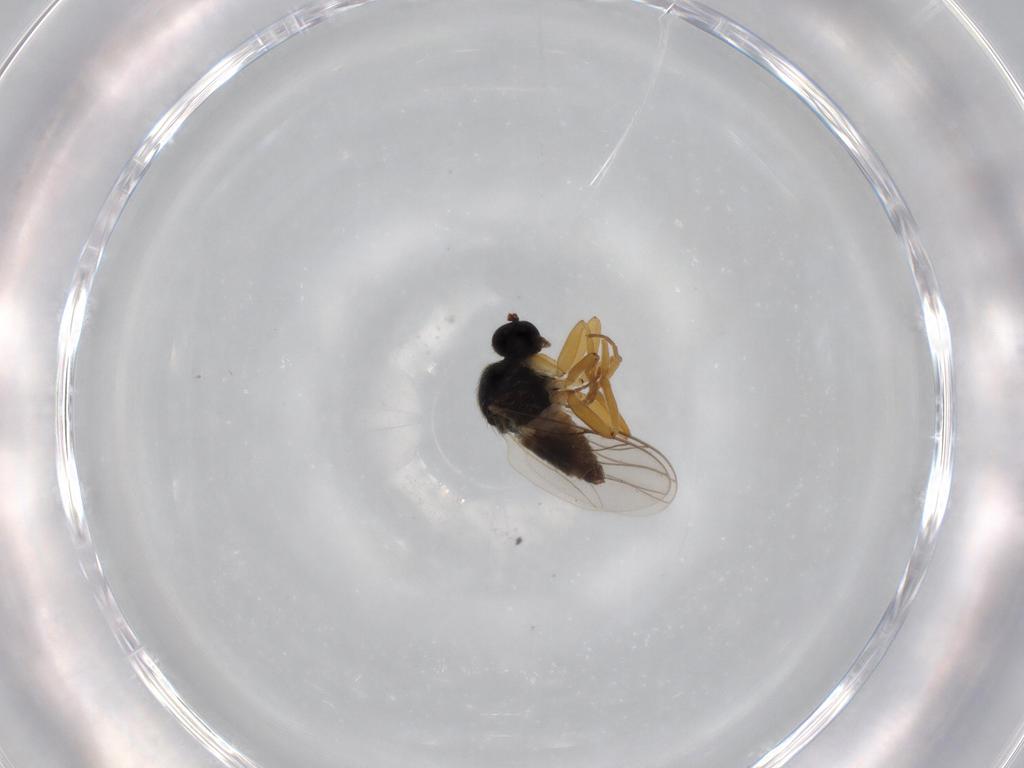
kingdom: Animalia
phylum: Arthropoda
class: Insecta
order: Diptera
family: Hybotidae
